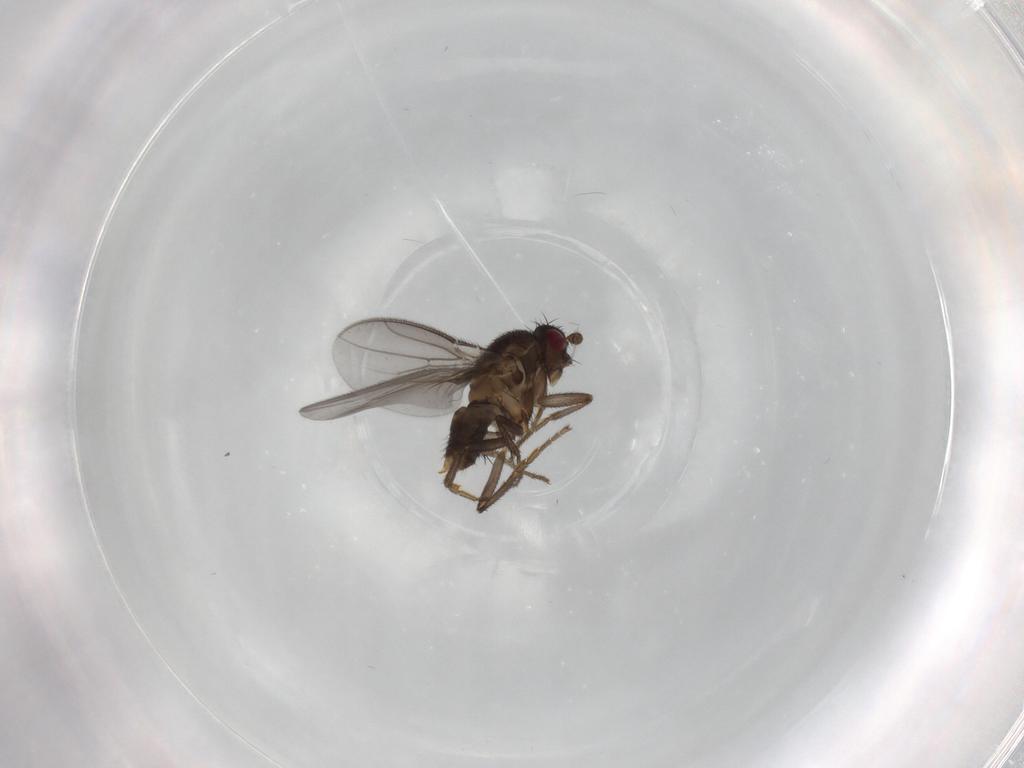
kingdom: Animalia
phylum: Arthropoda
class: Insecta
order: Diptera
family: Sphaeroceridae
